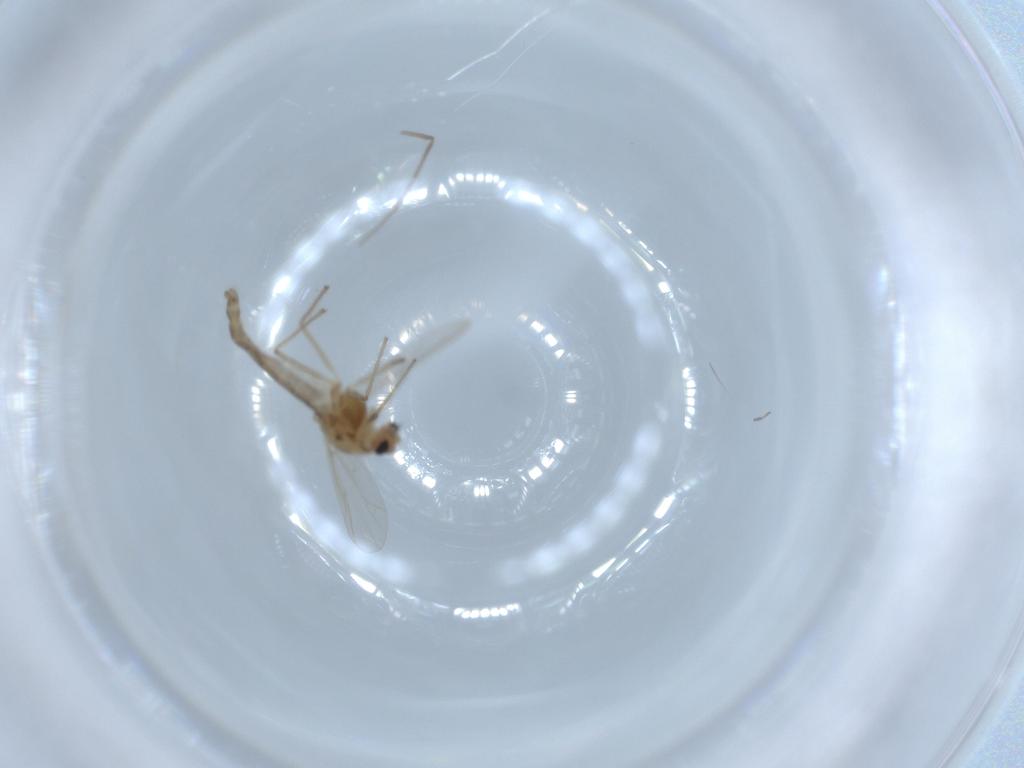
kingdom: Animalia
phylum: Arthropoda
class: Insecta
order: Diptera
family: Chironomidae
